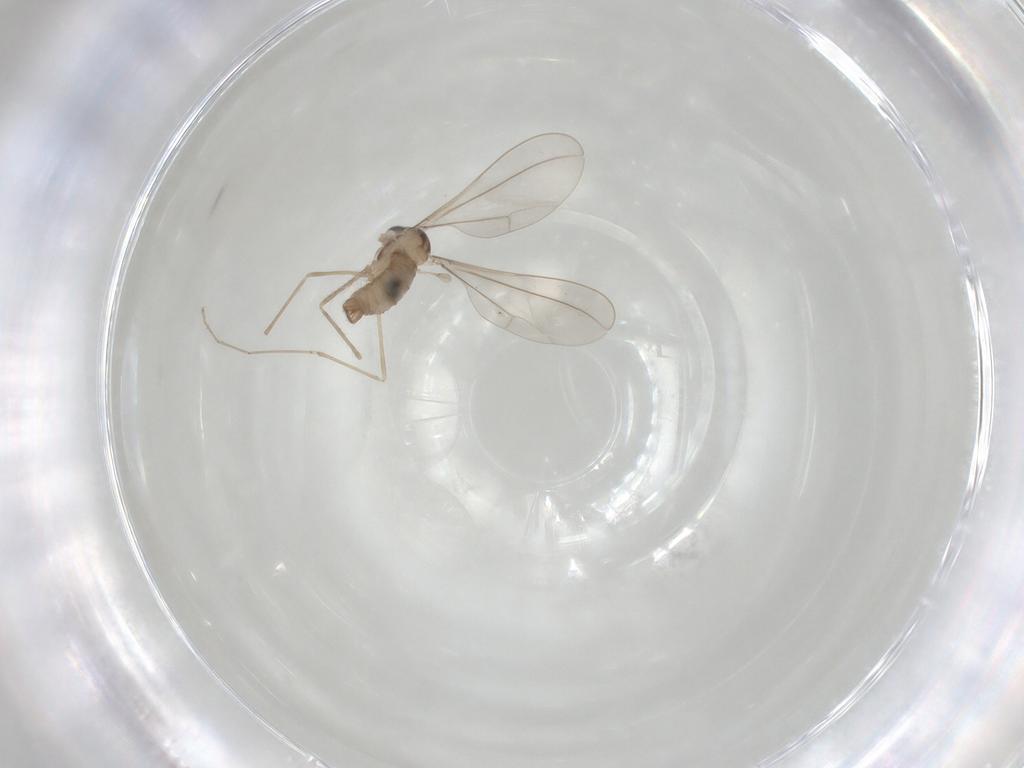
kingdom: Animalia
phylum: Arthropoda
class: Insecta
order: Diptera
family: Cecidomyiidae
